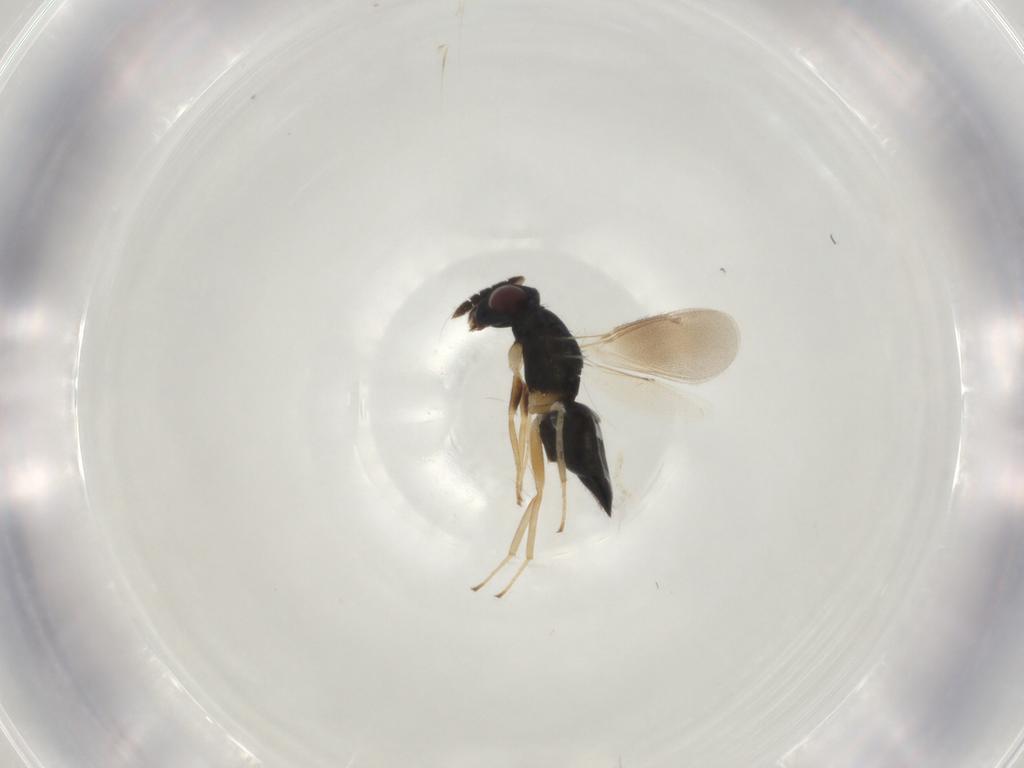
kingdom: Animalia
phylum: Arthropoda
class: Insecta
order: Hymenoptera
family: Eulophidae
